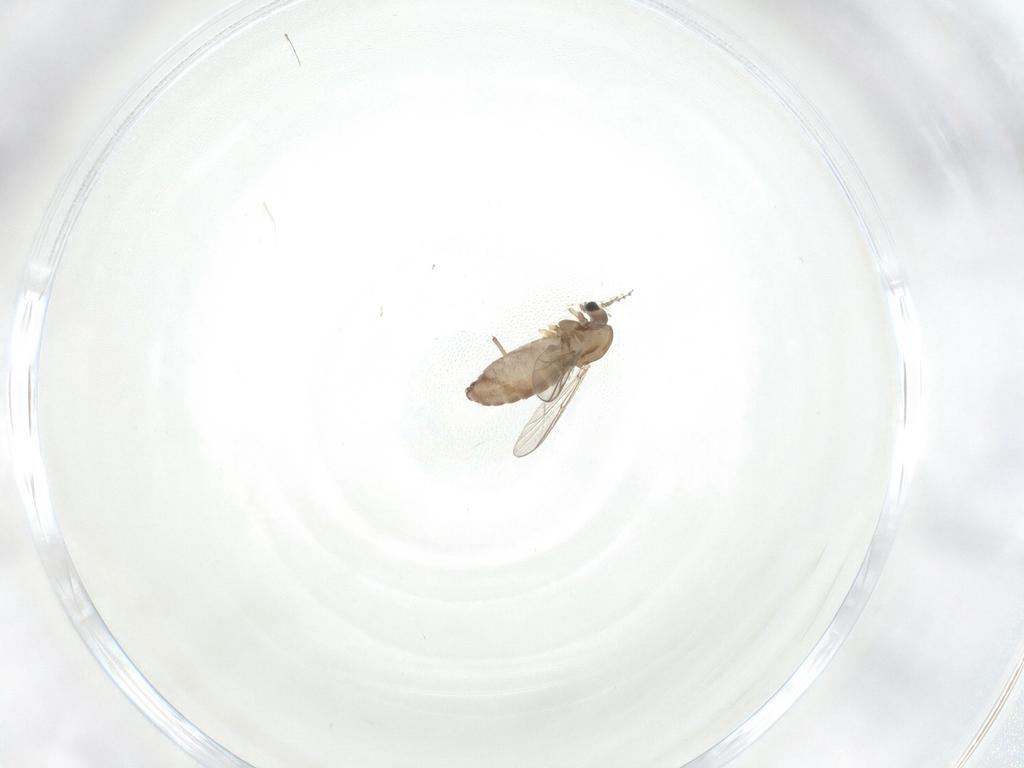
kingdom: Animalia
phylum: Arthropoda
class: Insecta
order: Diptera
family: Chironomidae
